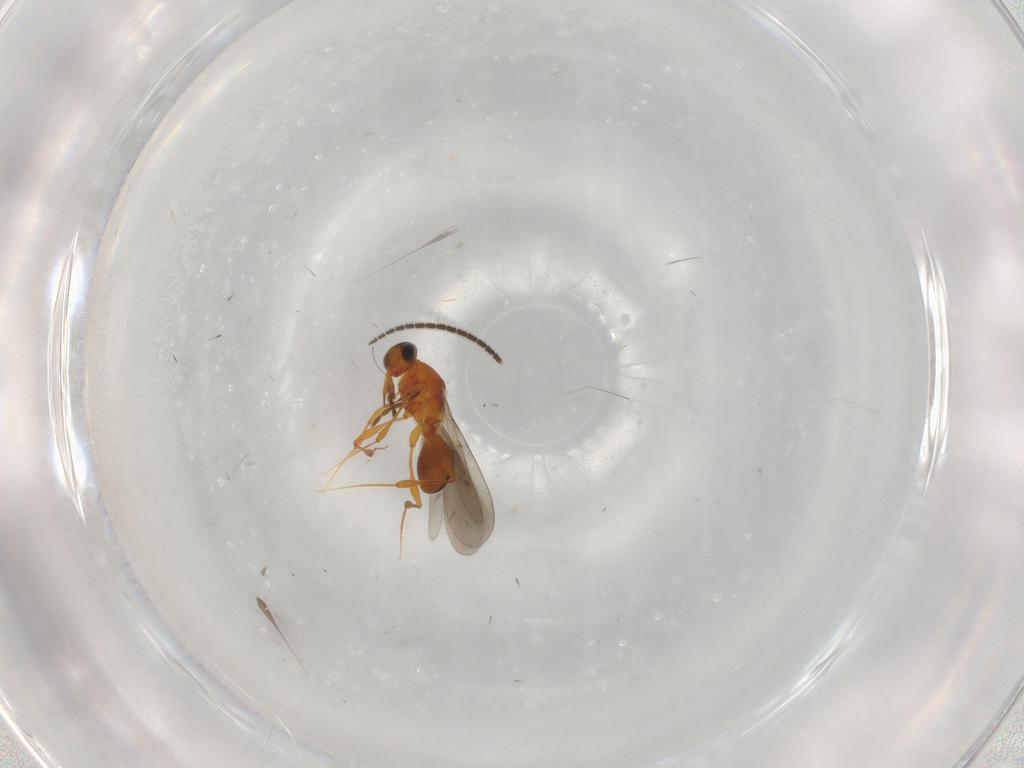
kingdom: Animalia
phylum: Arthropoda
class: Insecta
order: Hymenoptera
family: Platygastridae
